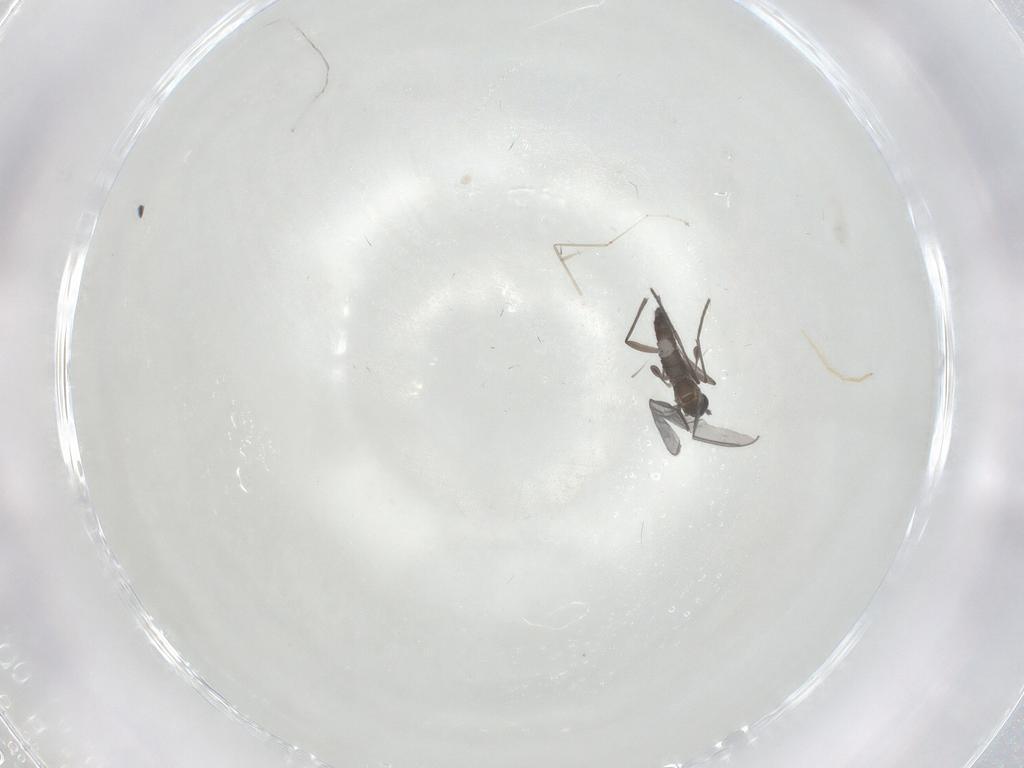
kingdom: Animalia
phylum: Arthropoda
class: Insecta
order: Diptera
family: Chironomidae
